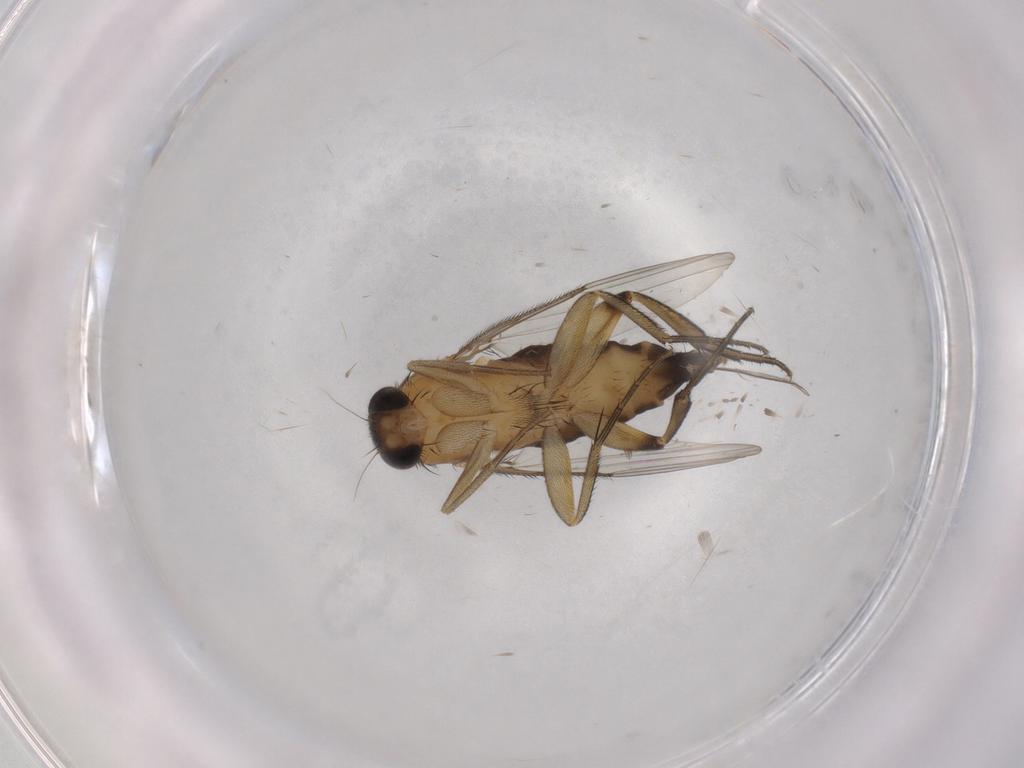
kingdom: Animalia
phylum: Arthropoda
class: Insecta
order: Diptera
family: Phoridae
